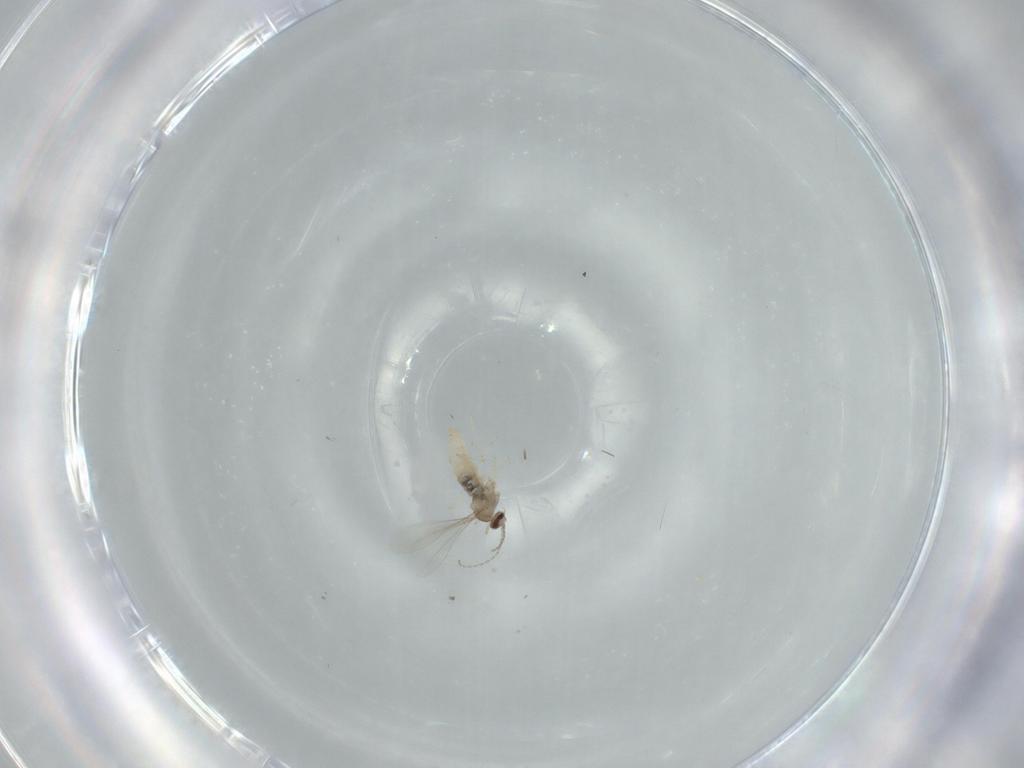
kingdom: Animalia
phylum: Arthropoda
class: Insecta
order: Diptera
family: Cecidomyiidae
